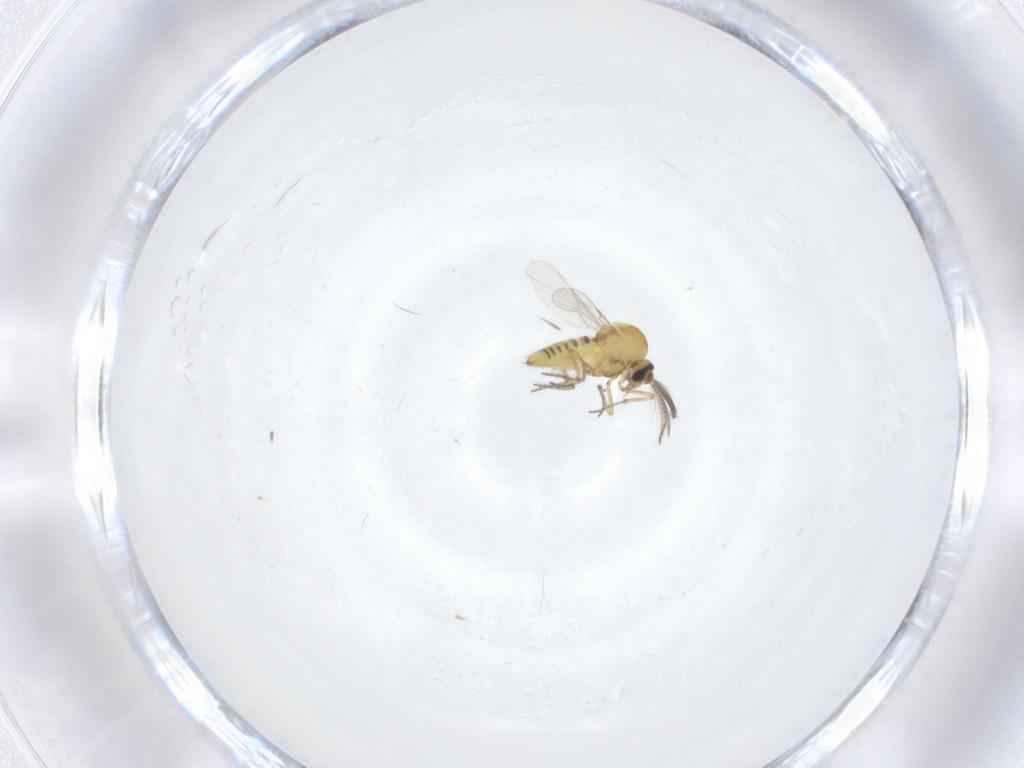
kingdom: Animalia
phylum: Arthropoda
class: Insecta
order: Diptera
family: Ceratopogonidae
